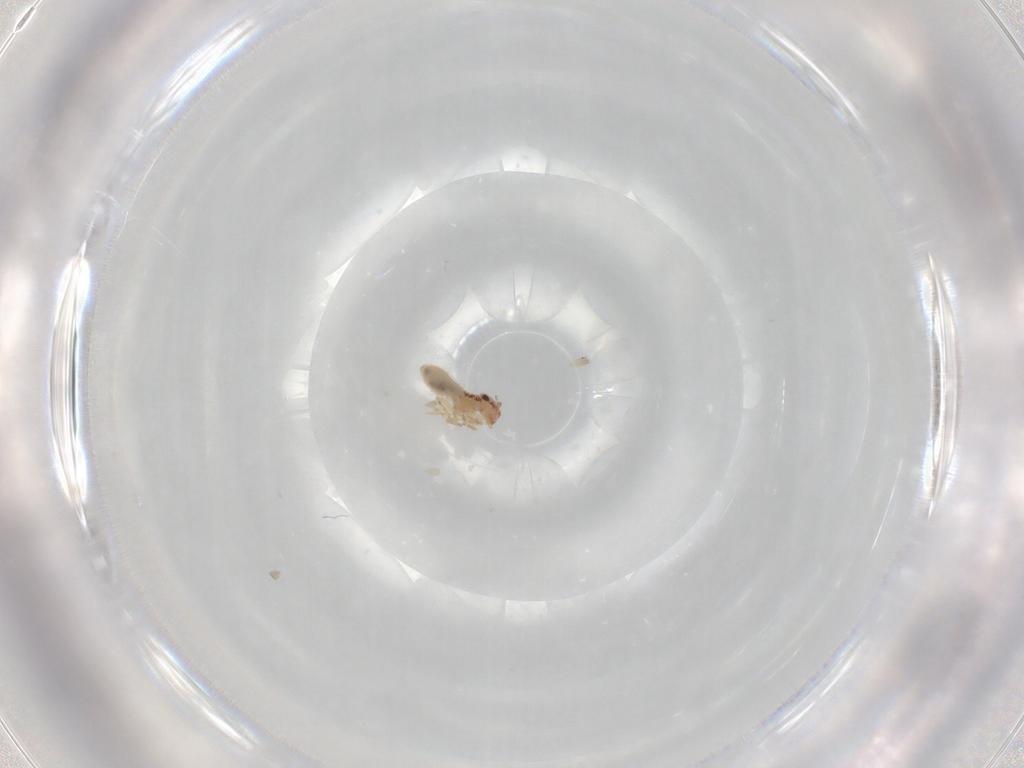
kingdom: Animalia
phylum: Arthropoda
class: Insecta
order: Psocodea
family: Lepidopsocidae
